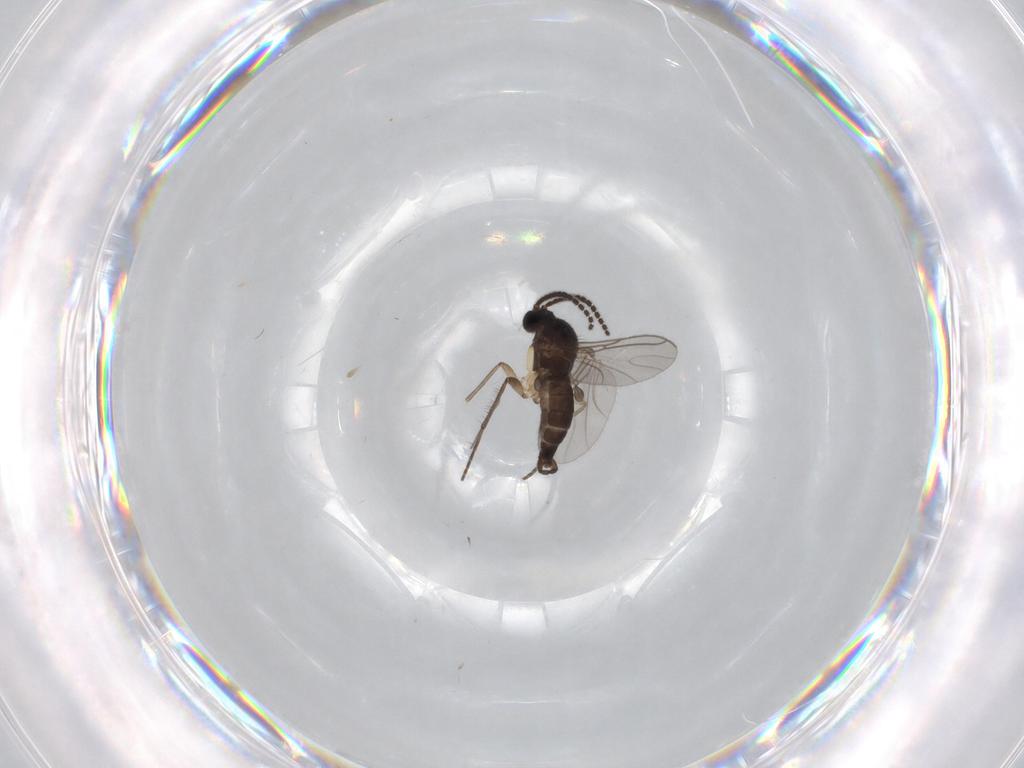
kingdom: Animalia
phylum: Arthropoda
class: Insecta
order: Diptera
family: Sciaridae
